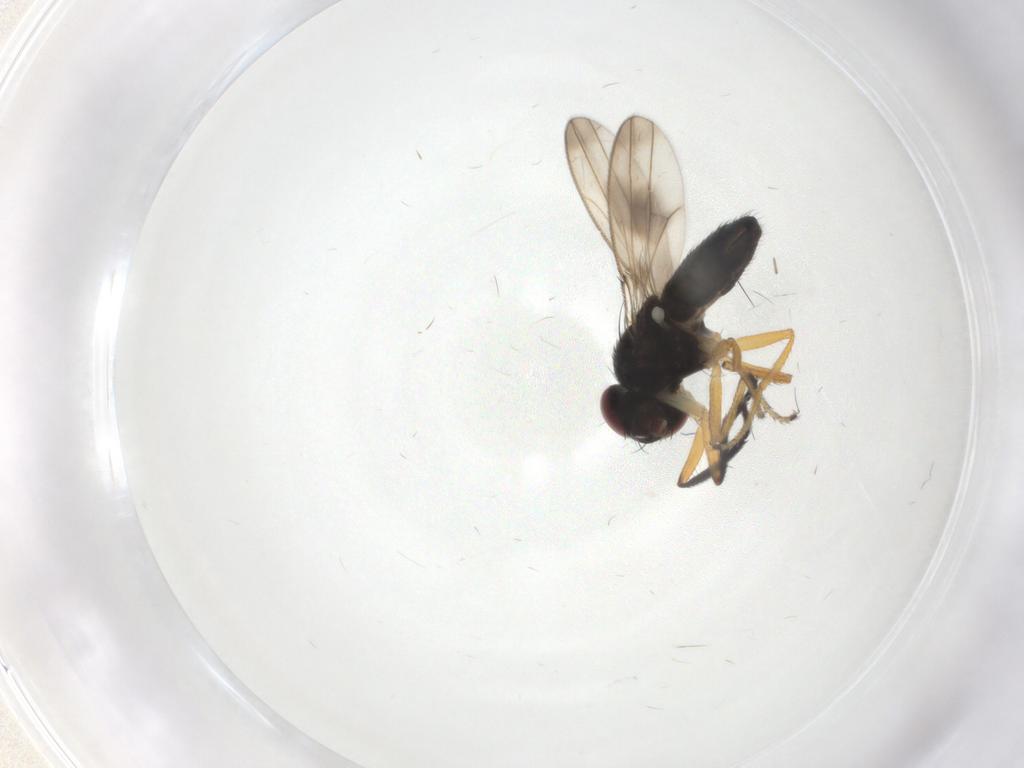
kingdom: Animalia
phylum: Arthropoda
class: Insecta
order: Diptera
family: Ephydridae
